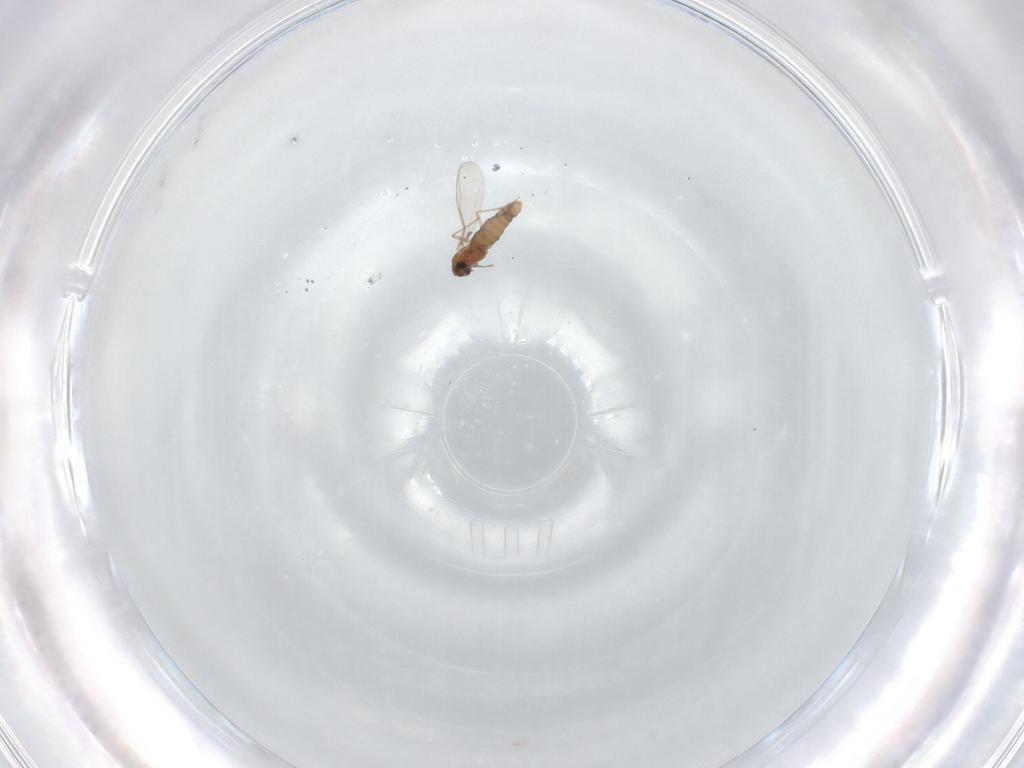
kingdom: Animalia
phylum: Arthropoda
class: Insecta
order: Diptera
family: Chironomidae
